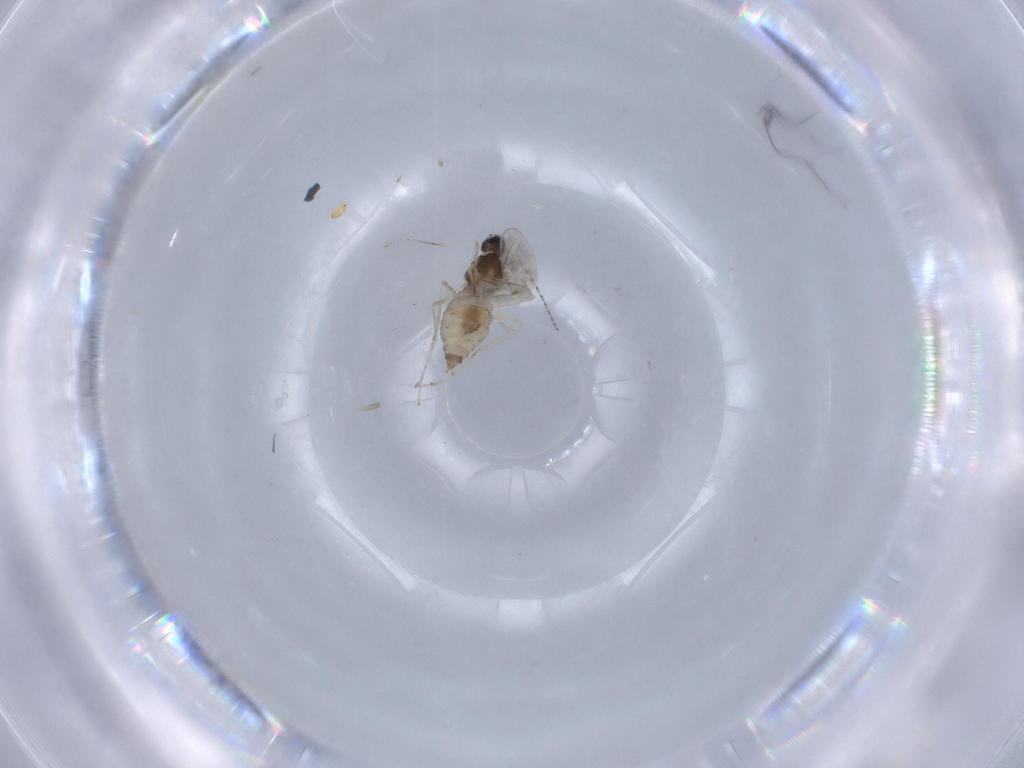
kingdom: Animalia
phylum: Arthropoda
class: Insecta
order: Diptera
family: Cecidomyiidae
